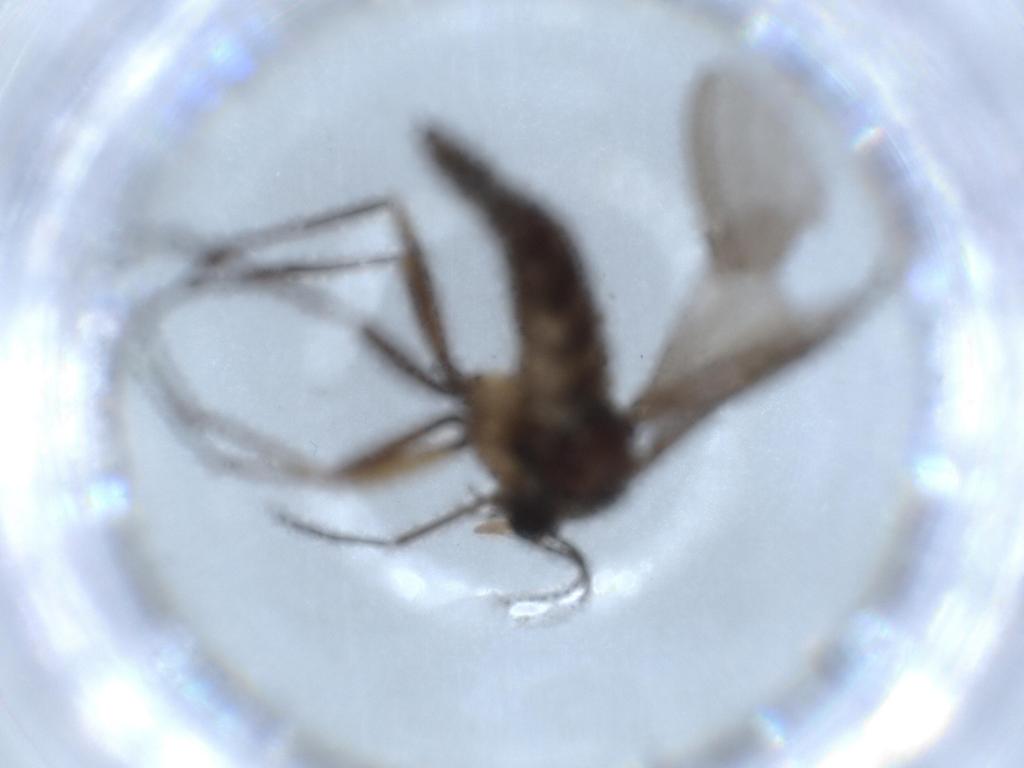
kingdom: Animalia
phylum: Arthropoda
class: Insecta
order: Diptera
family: Sciaridae
